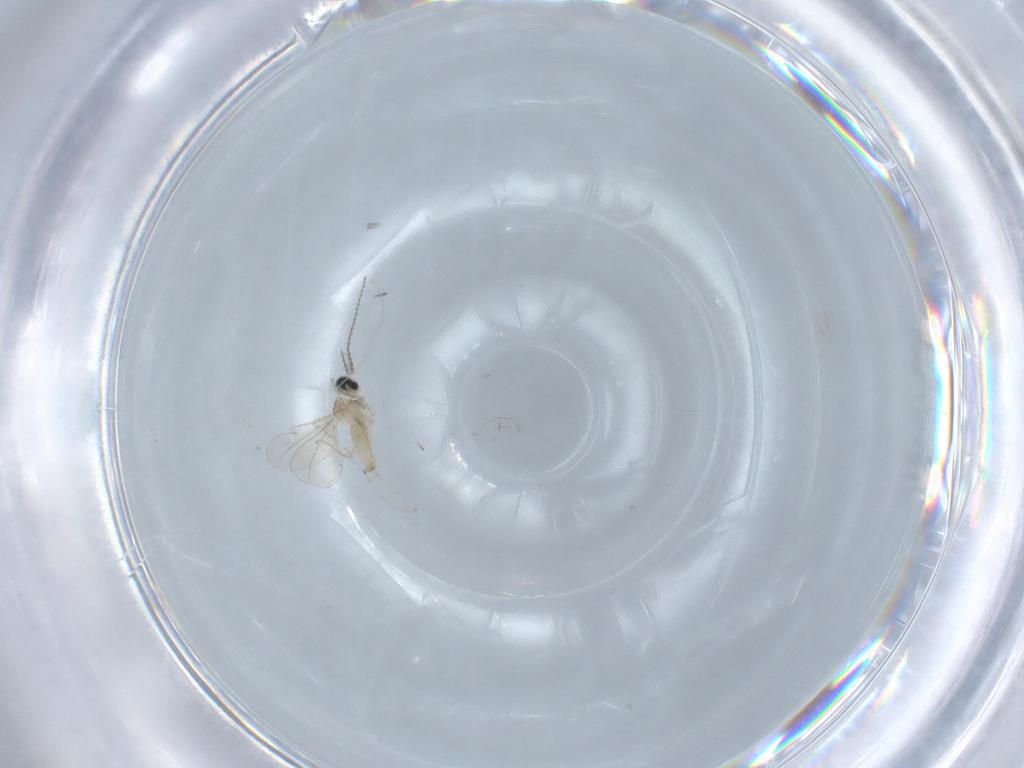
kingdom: Animalia
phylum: Arthropoda
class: Insecta
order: Diptera
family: Cecidomyiidae
